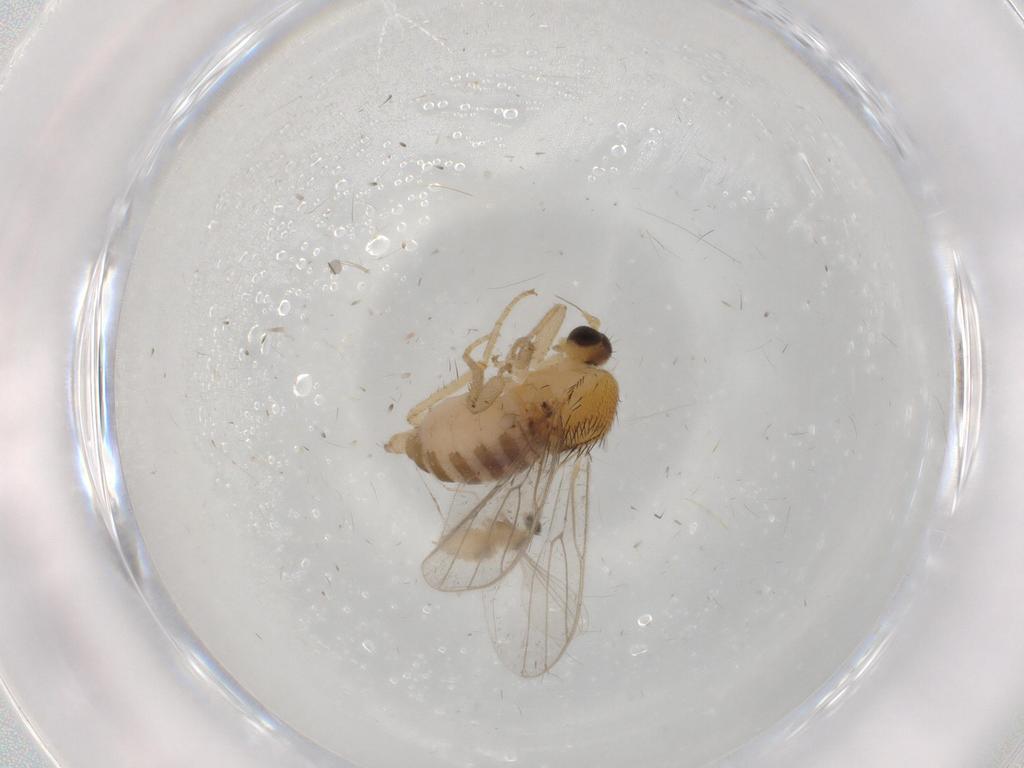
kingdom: Animalia
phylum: Arthropoda
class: Insecta
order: Diptera
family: Hybotidae
